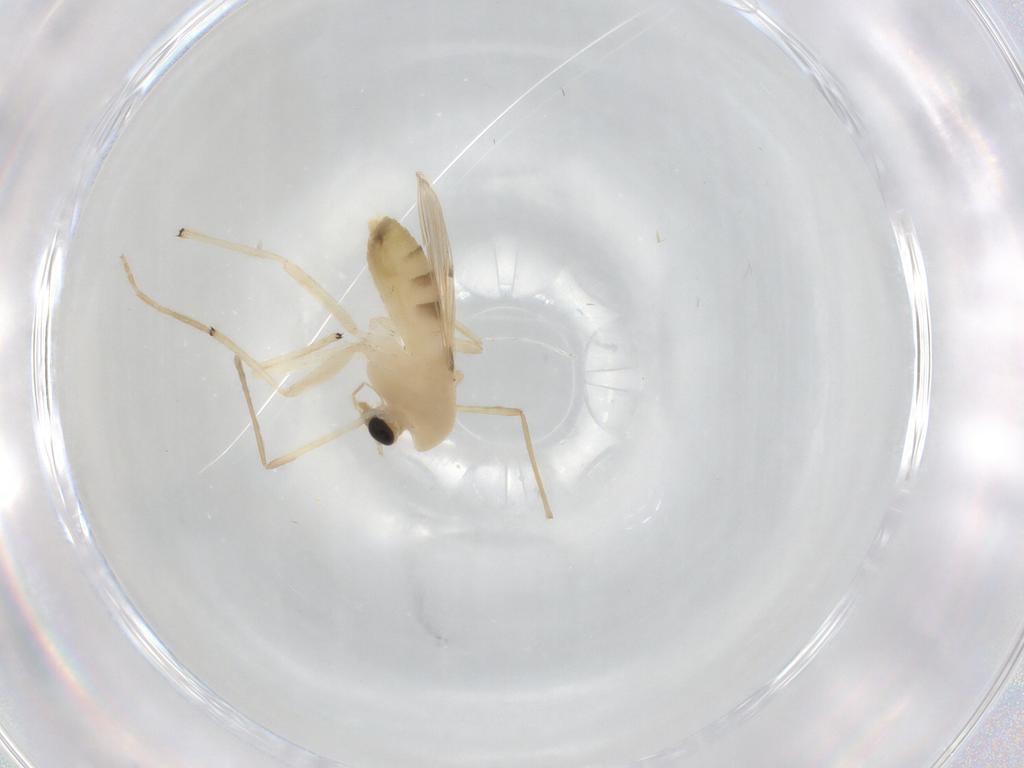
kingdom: Animalia
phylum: Arthropoda
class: Insecta
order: Diptera
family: Chironomidae
